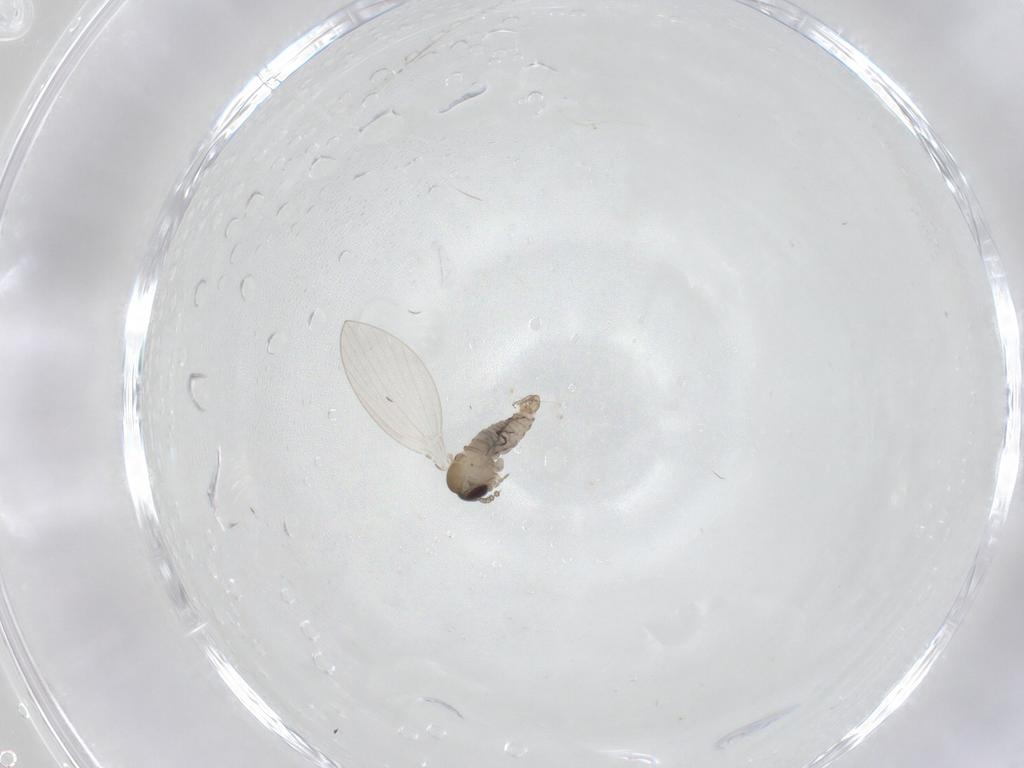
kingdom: Animalia
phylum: Arthropoda
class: Insecta
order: Diptera
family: Psychodidae
